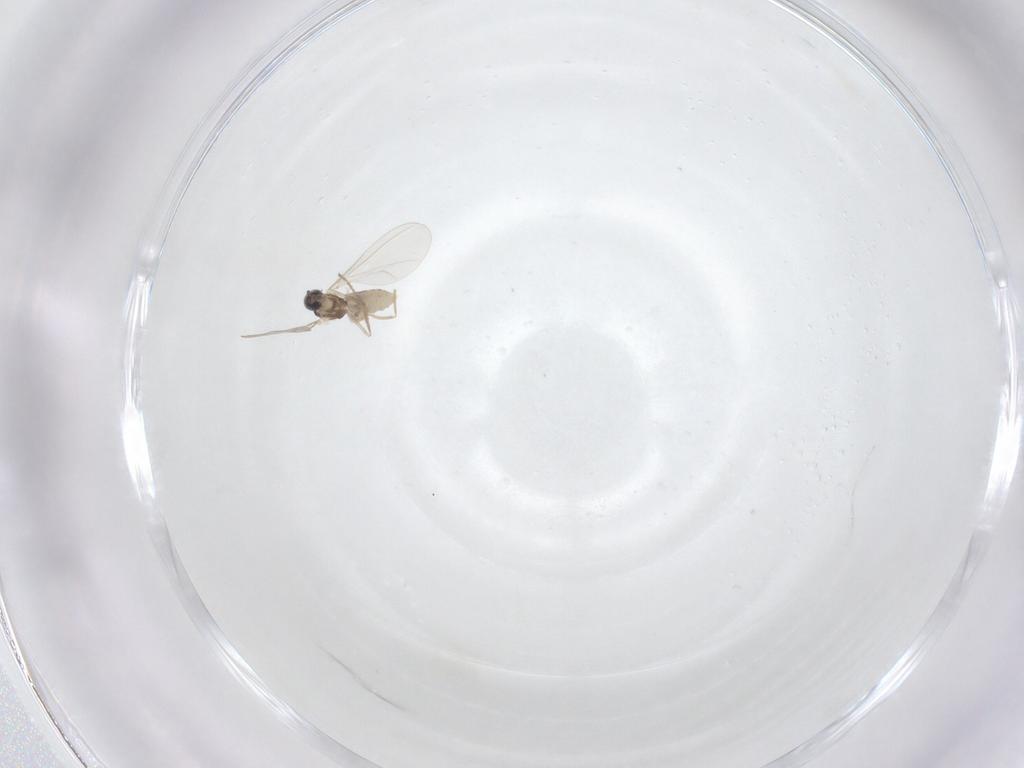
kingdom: Animalia
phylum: Arthropoda
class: Insecta
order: Diptera
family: Cecidomyiidae
